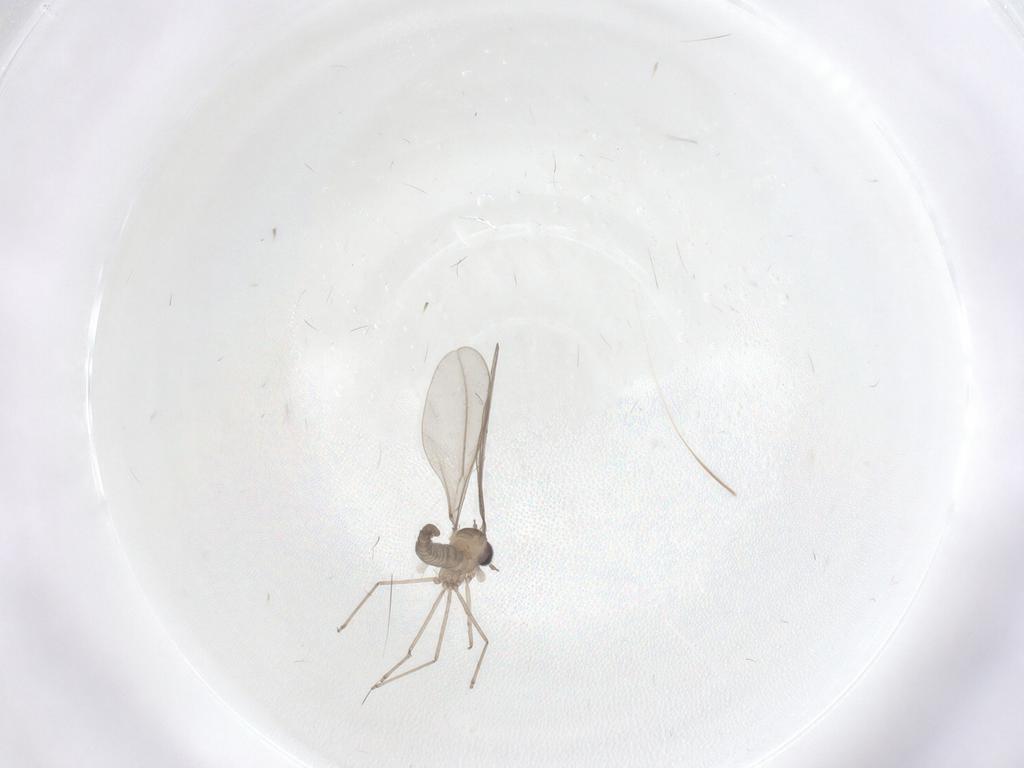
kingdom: Animalia
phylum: Arthropoda
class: Insecta
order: Diptera
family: Cecidomyiidae
